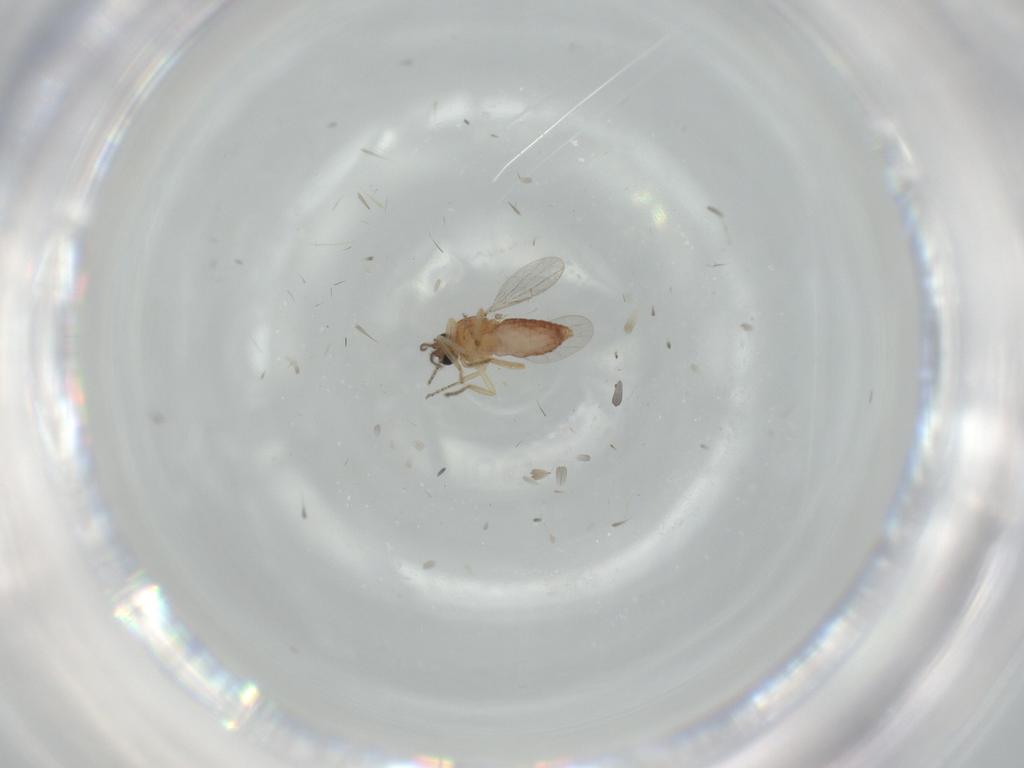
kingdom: Animalia
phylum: Arthropoda
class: Insecta
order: Diptera
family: Ceratopogonidae
